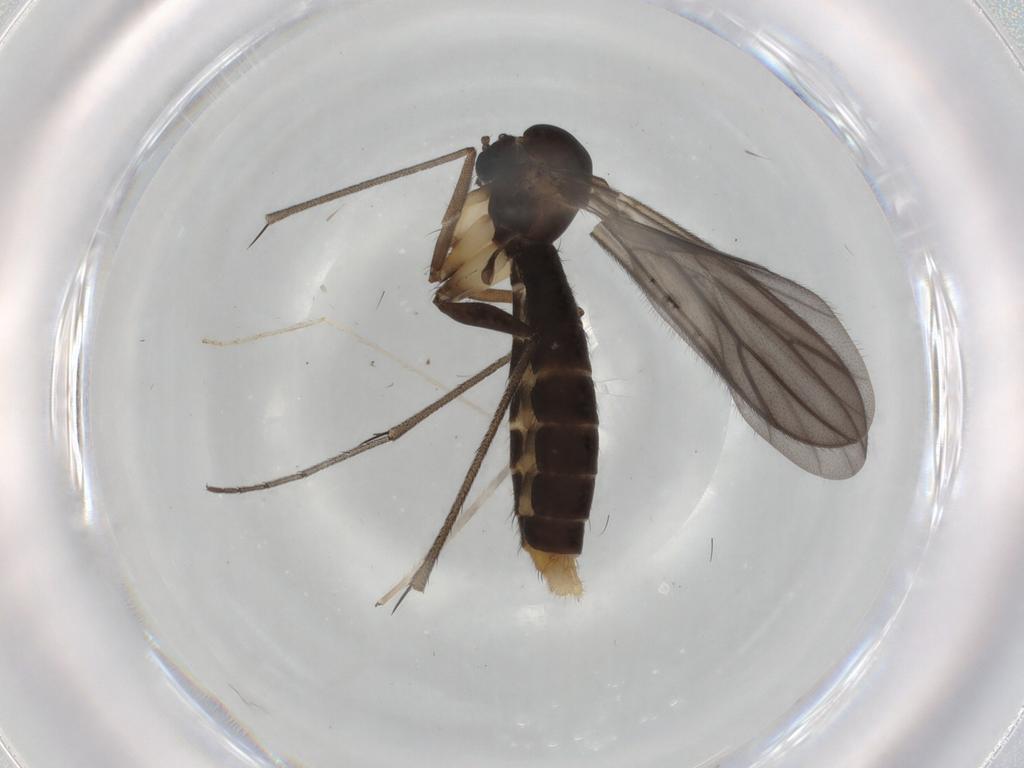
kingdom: Animalia
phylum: Arthropoda
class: Insecta
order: Diptera
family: Ditomyiidae
